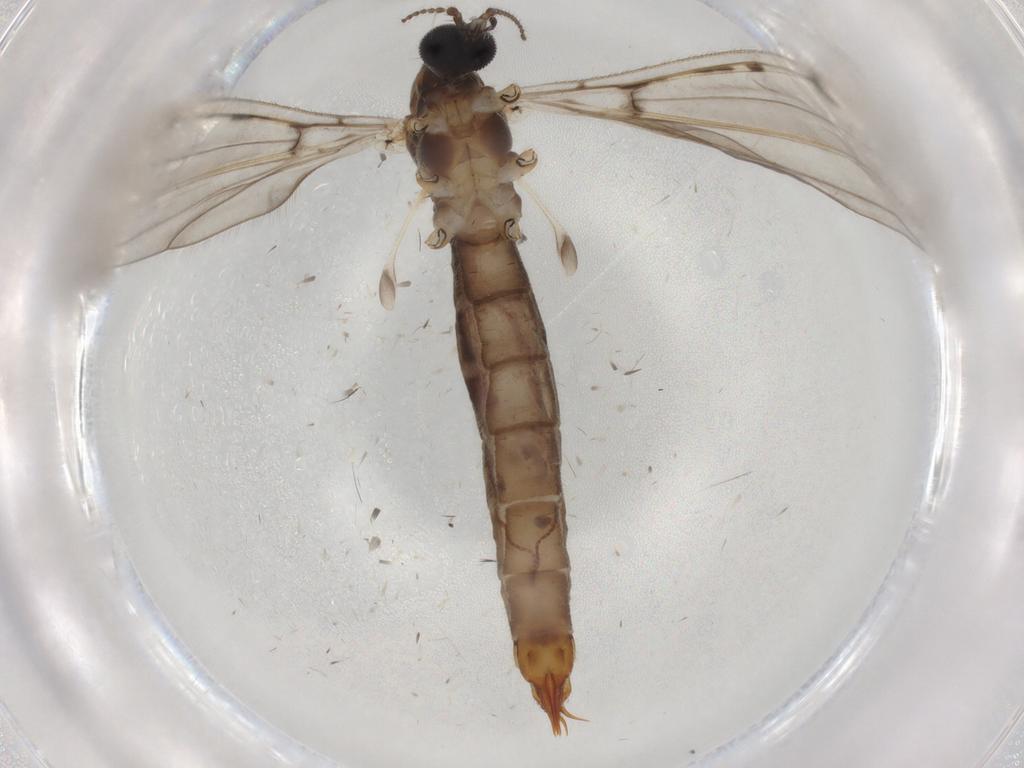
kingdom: Animalia
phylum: Arthropoda
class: Insecta
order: Diptera
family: Limoniidae
